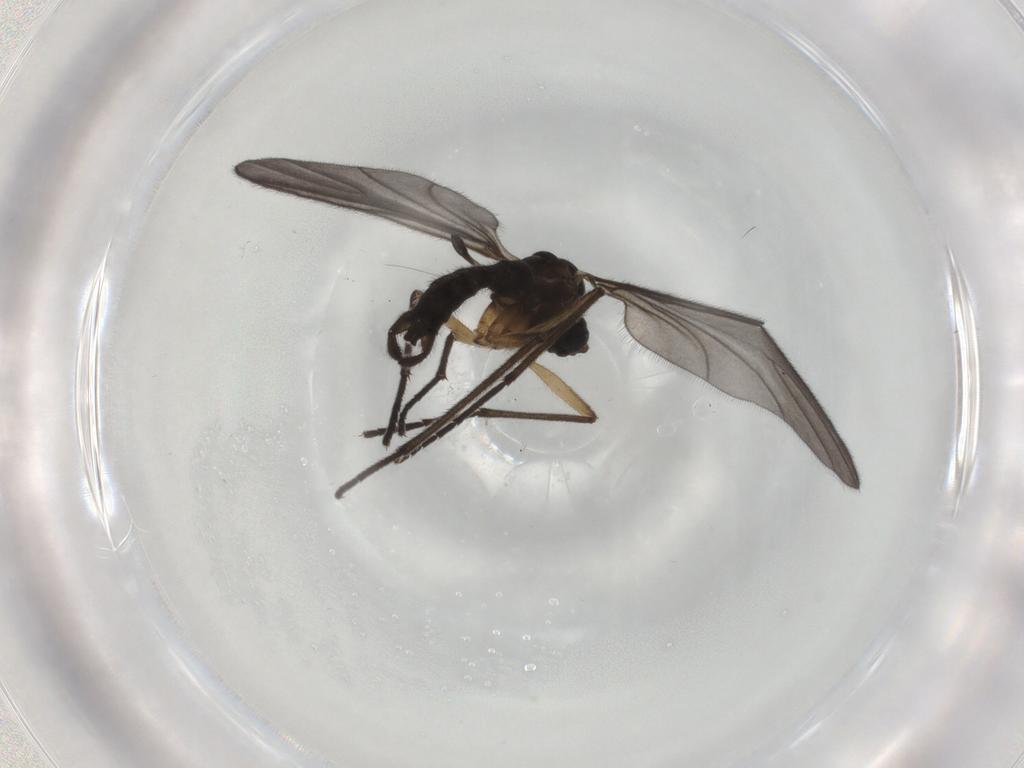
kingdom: Animalia
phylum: Arthropoda
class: Insecta
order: Diptera
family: Sciaridae
